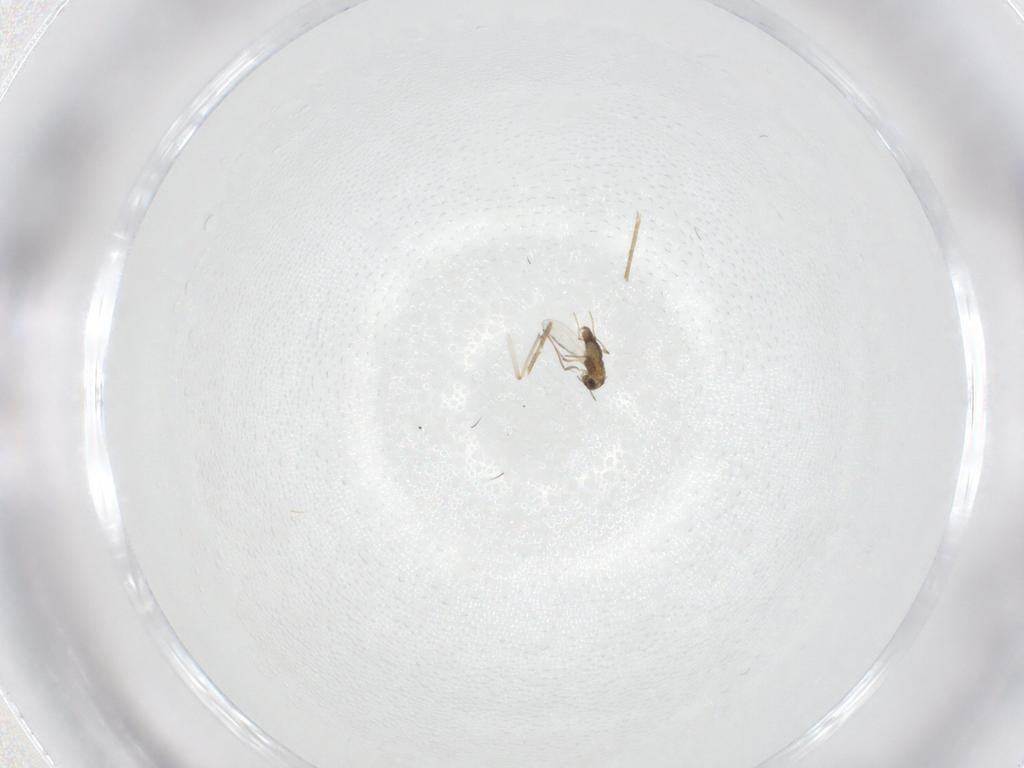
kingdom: Animalia
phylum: Arthropoda
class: Insecta
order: Diptera
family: Limoniidae
